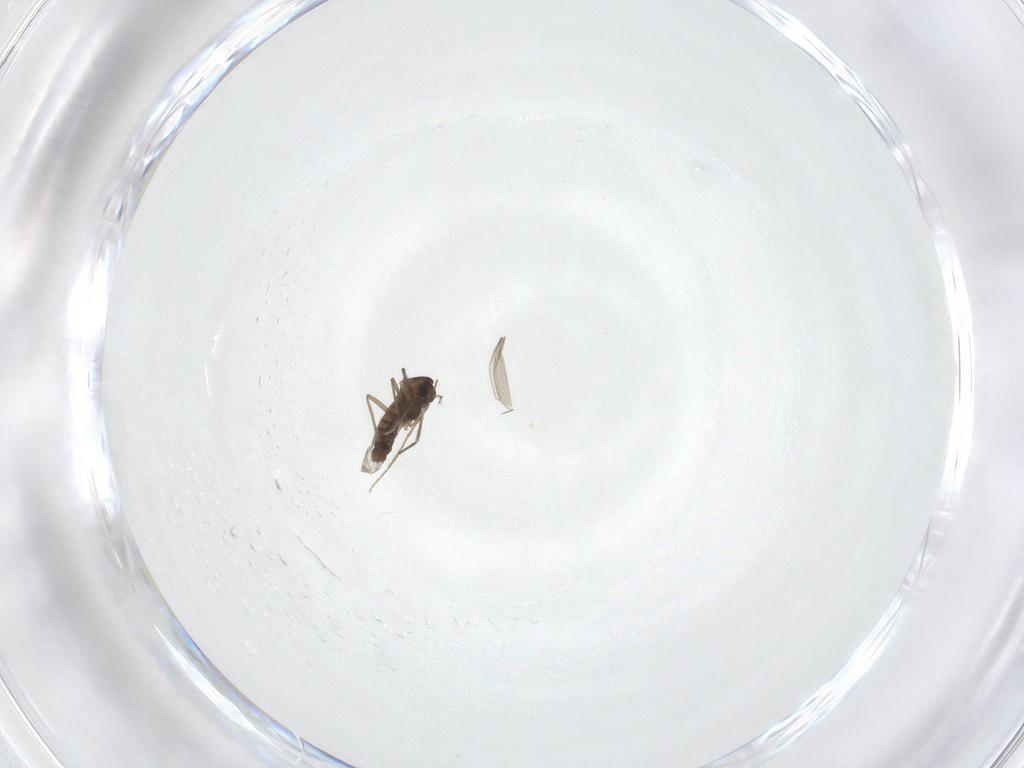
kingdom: Animalia
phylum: Arthropoda
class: Insecta
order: Diptera
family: Chironomidae
